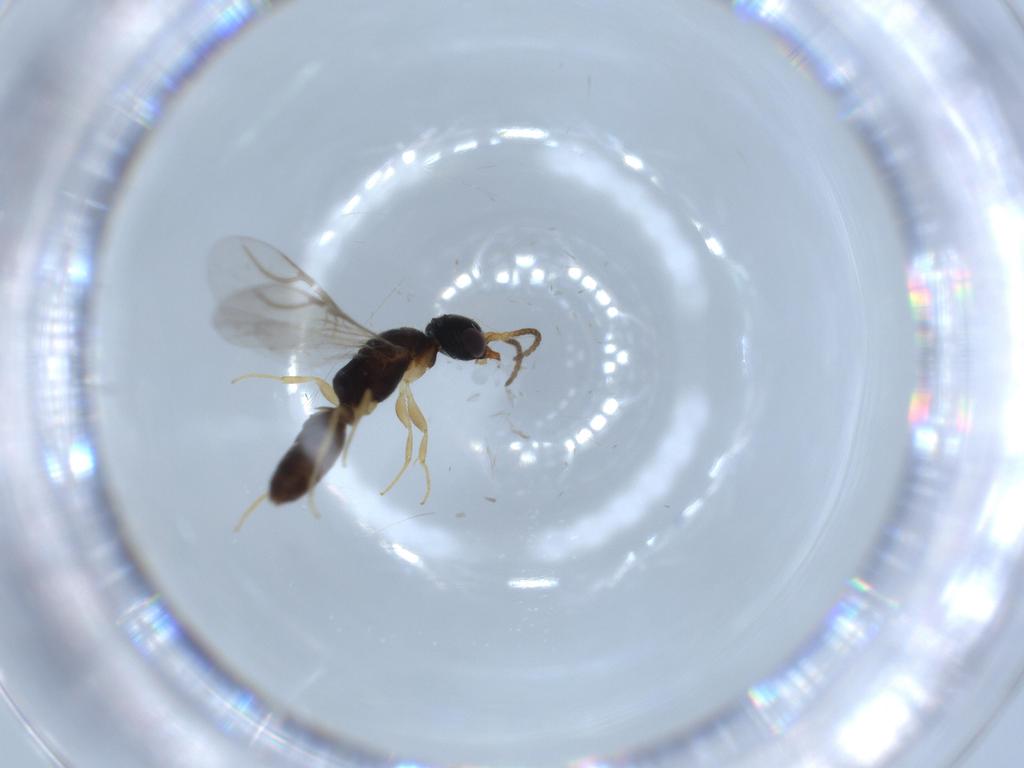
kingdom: Animalia
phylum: Arthropoda
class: Insecta
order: Hymenoptera
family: Bethylidae
